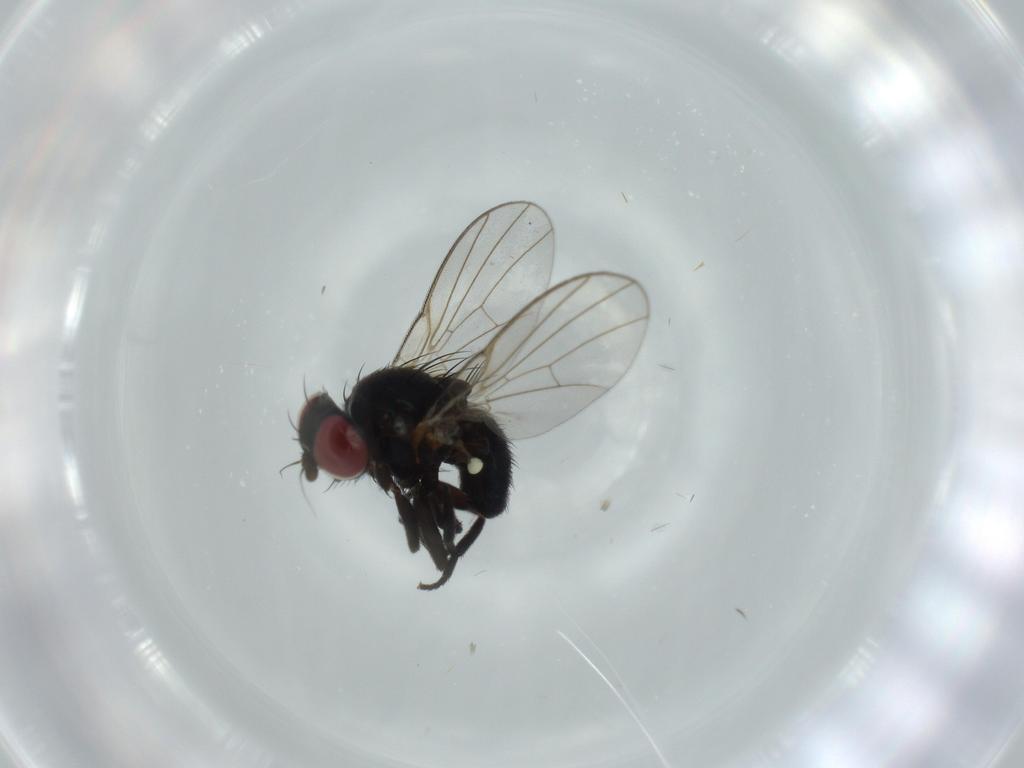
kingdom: Animalia
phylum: Arthropoda
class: Insecta
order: Diptera
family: Agromyzidae
